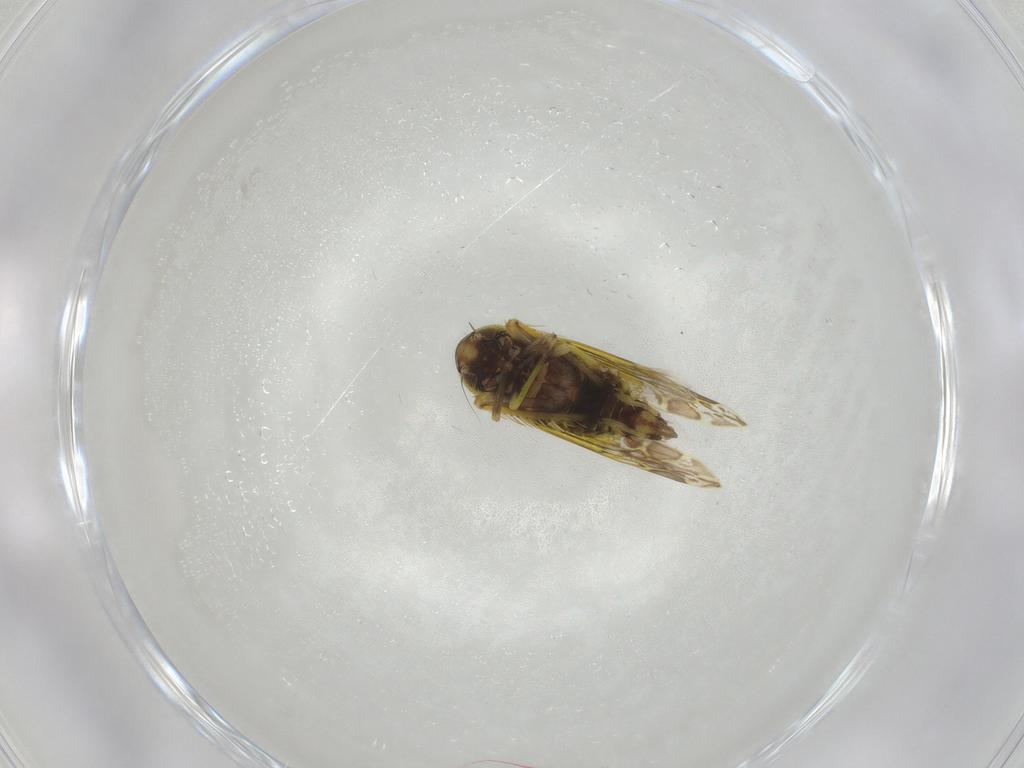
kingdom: Animalia
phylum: Arthropoda
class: Insecta
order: Hemiptera
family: Cicadellidae
